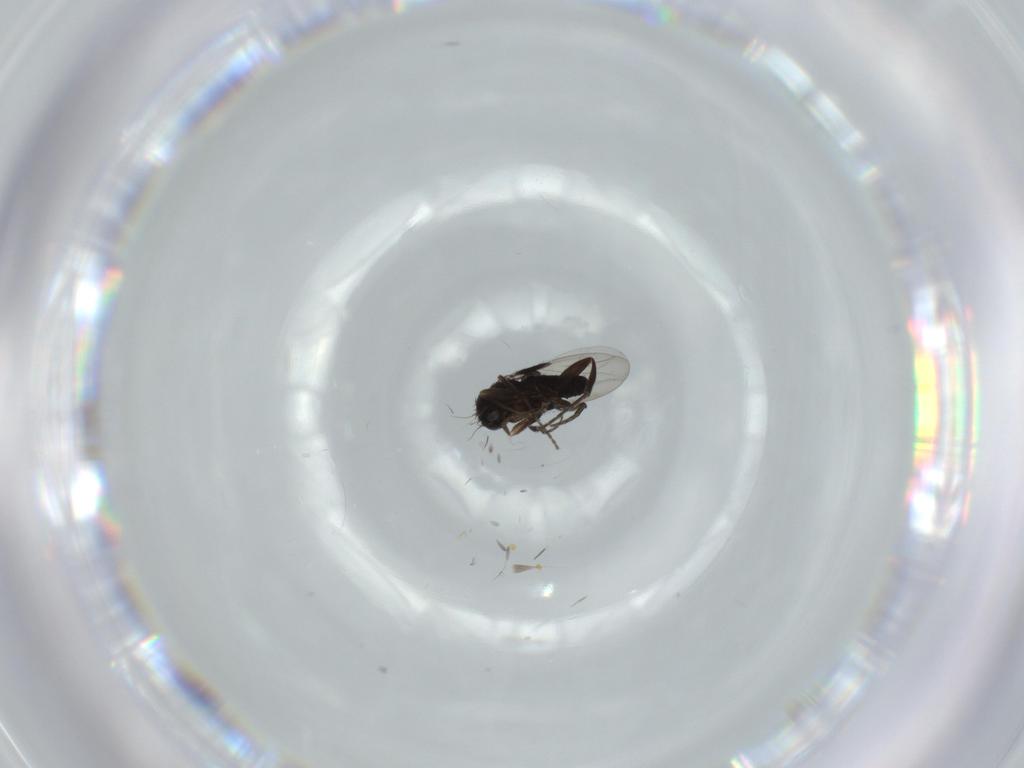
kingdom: Animalia
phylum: Arthropoda
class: Insecta
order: Diptera
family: Phoridae
